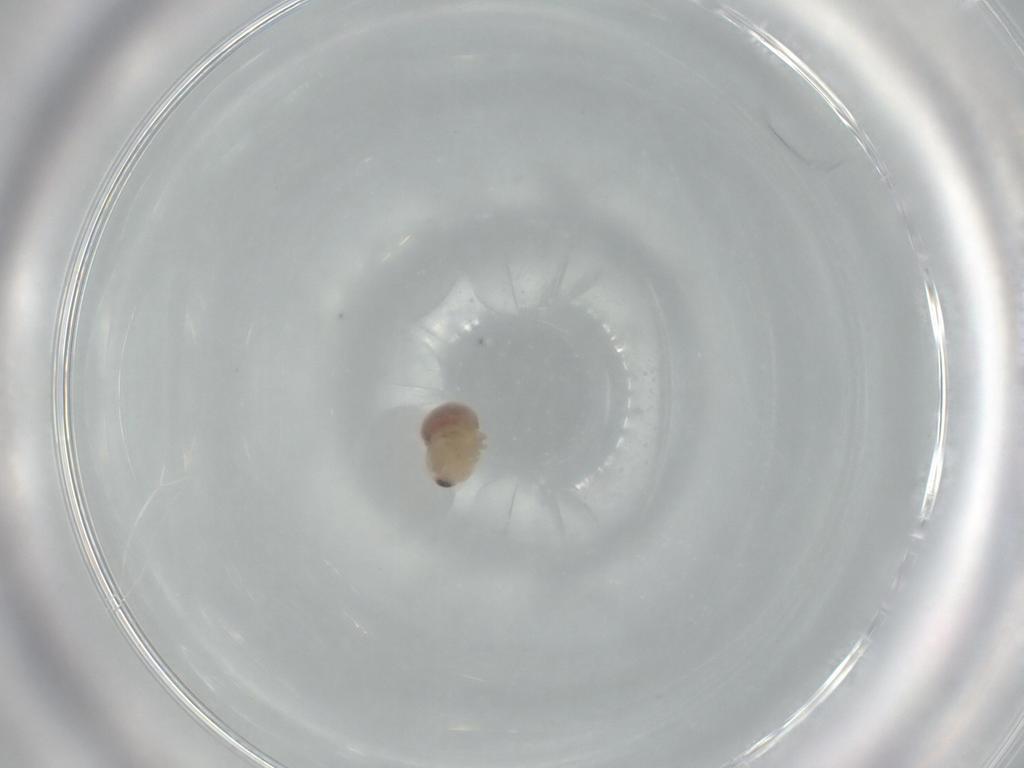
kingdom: Animalia
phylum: Arthropoda
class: Arachnida
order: Araneae
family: Pholcidae
